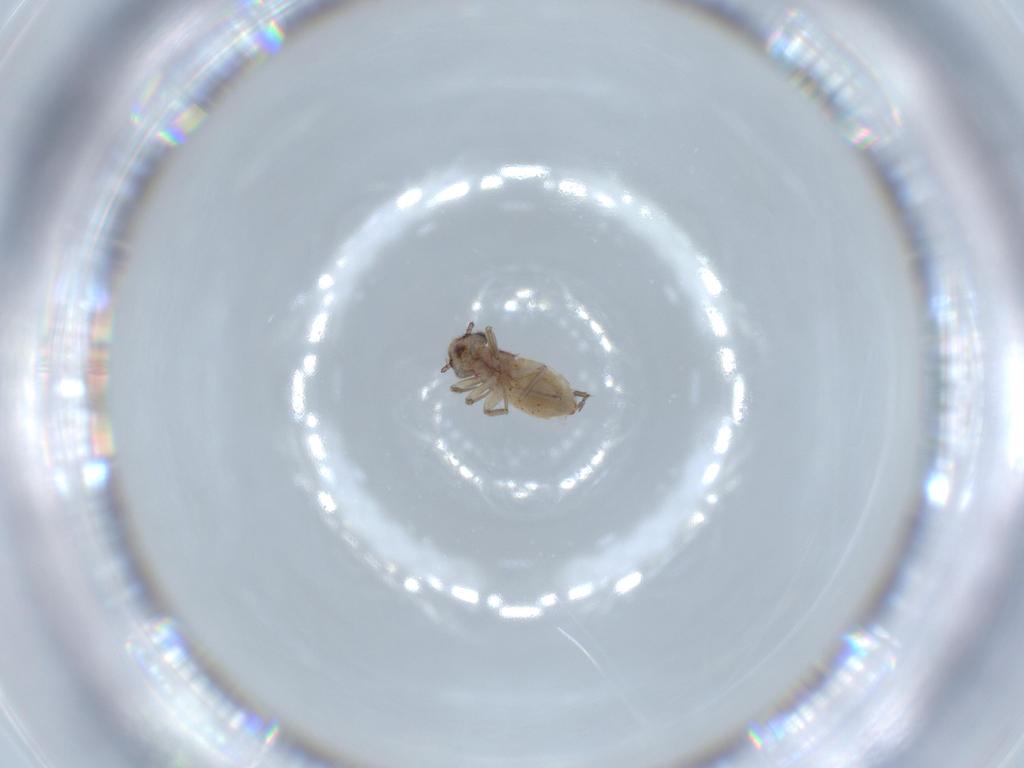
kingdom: Animalia
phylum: Arthropoda
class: Insecta
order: Psocodea
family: Lepidopsocidae
